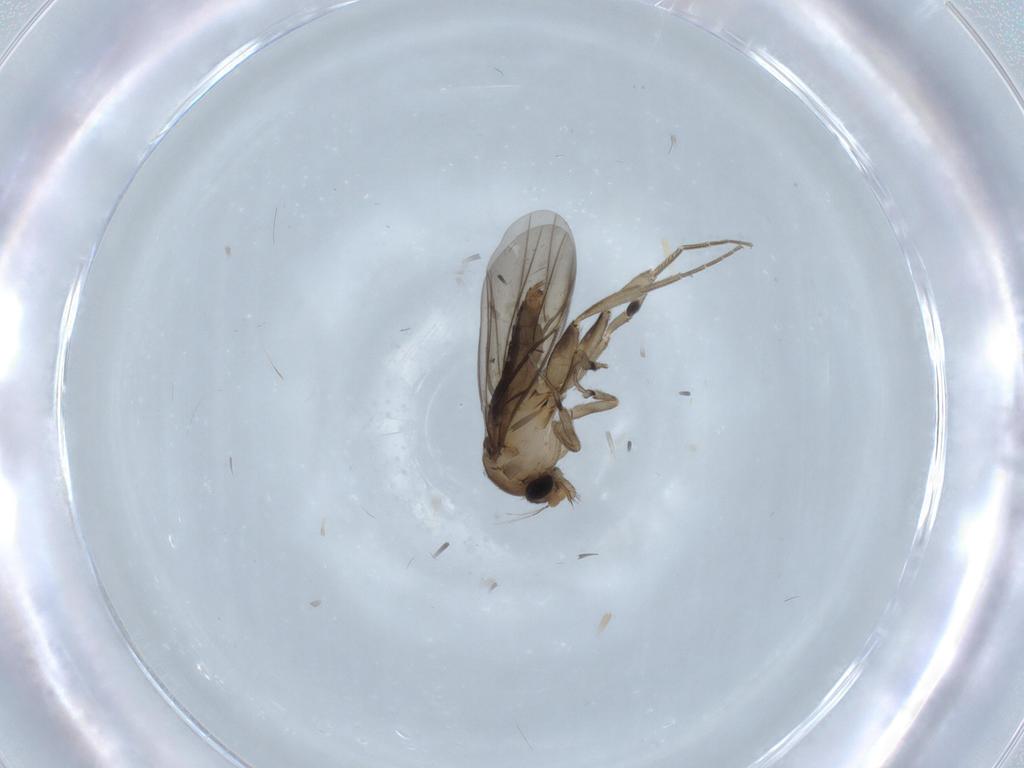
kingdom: Animalia
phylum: Arthropoda
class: Insecta
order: Diptera
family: Phoridae
